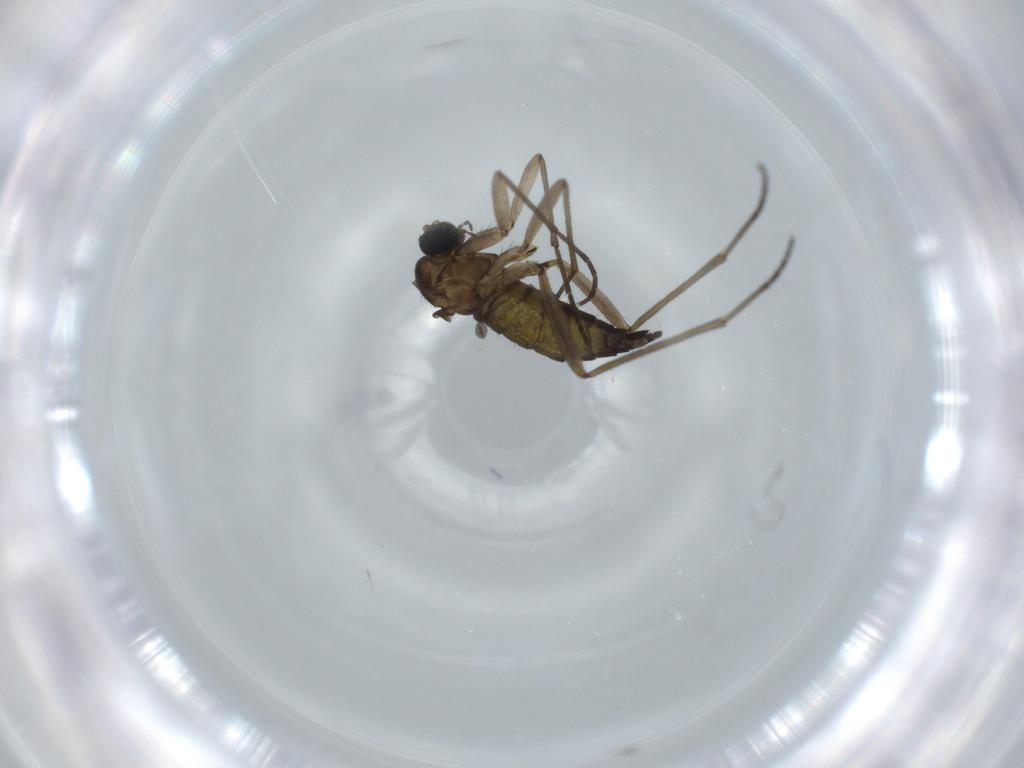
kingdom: Animalia
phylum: Arthropoda
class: Insecta
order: Diptera
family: Sciaridae
